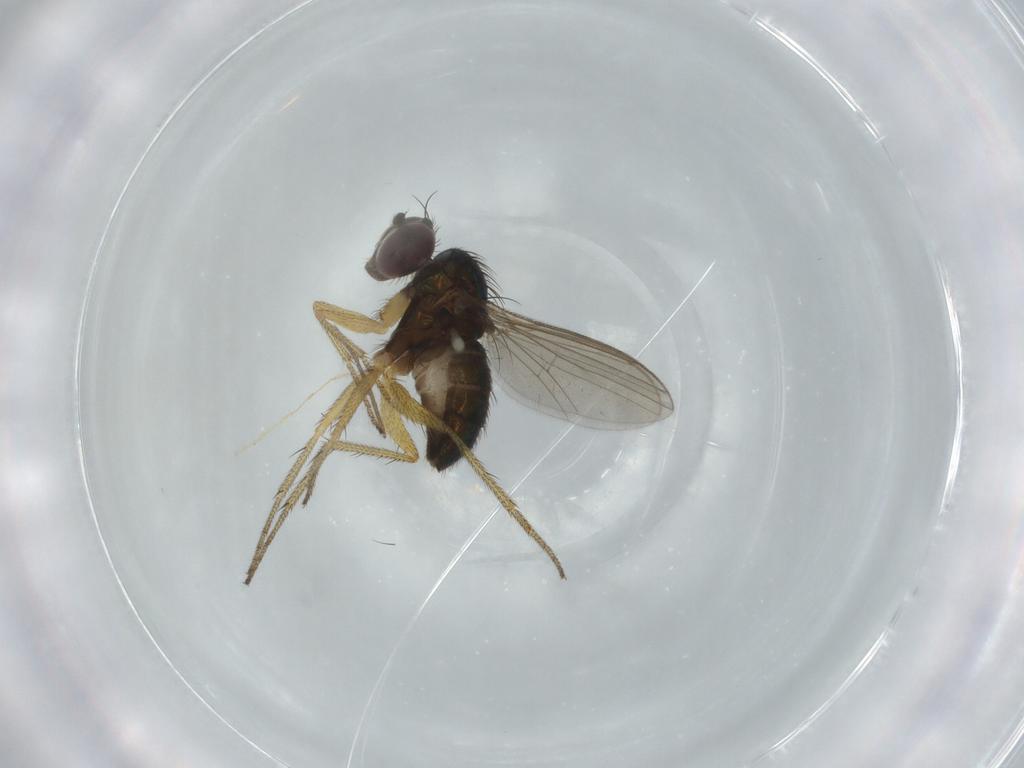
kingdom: Animalia
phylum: Arthropoda
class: Insecta
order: Diptera
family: Dolichopodidae
